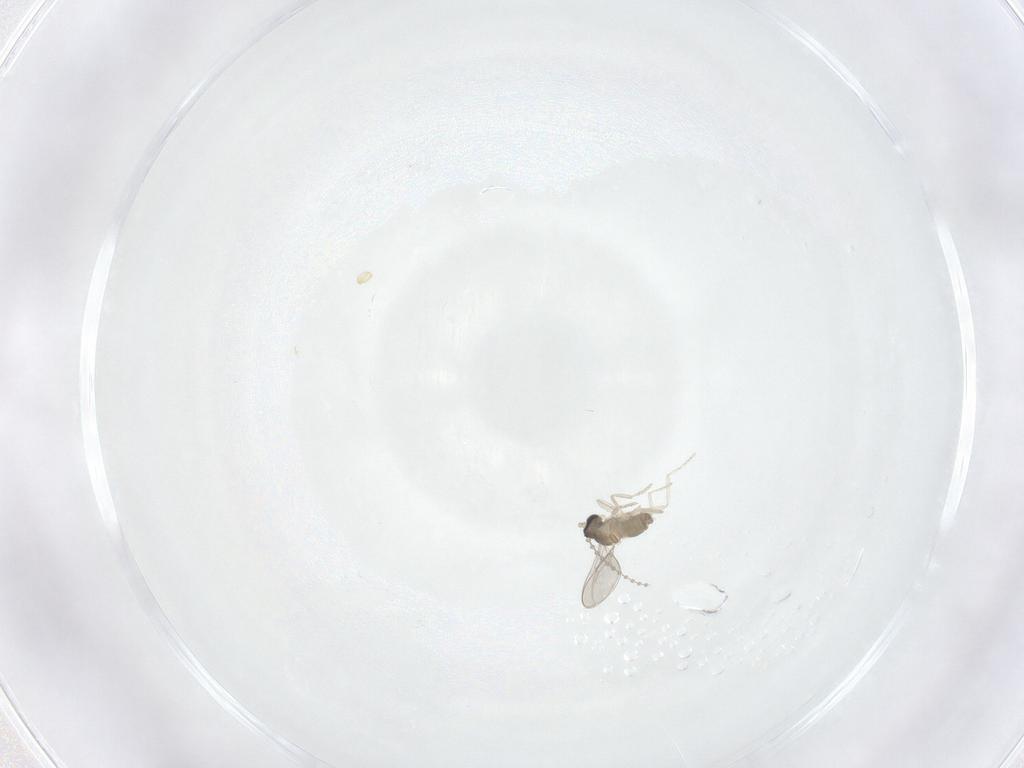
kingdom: Animalia
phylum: Arthropoda
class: Insecta
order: Diptera
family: Cecidomyiidae
